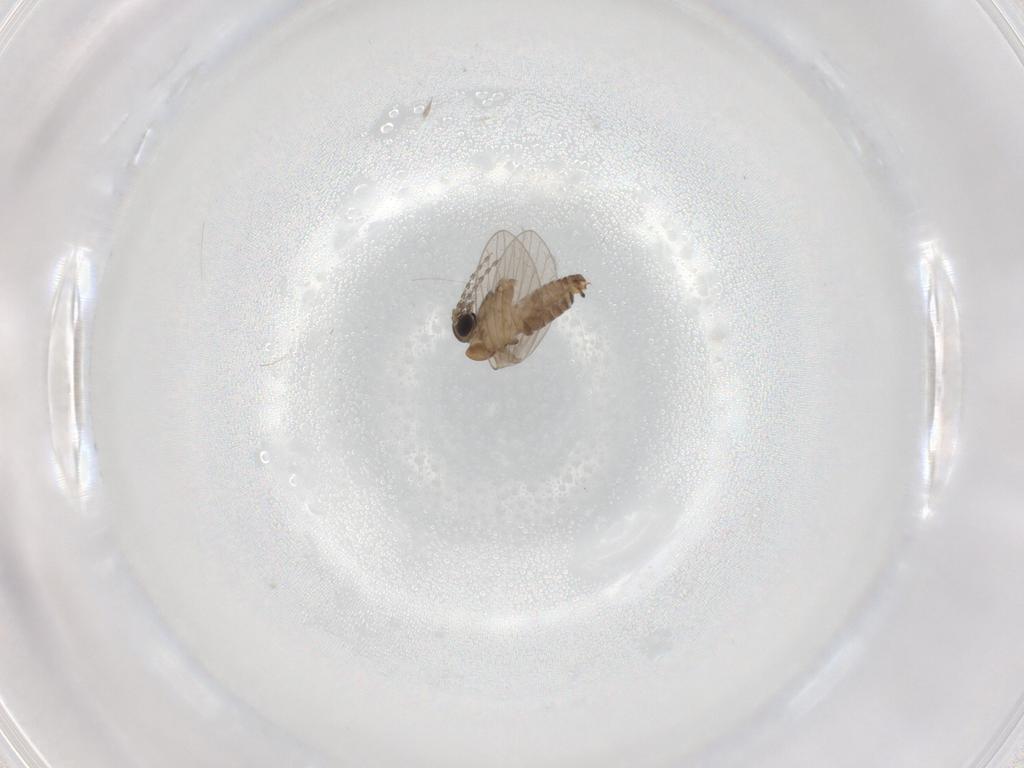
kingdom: Animalia
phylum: Arthropoda
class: Insecta
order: Diptera
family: Psychodidae
